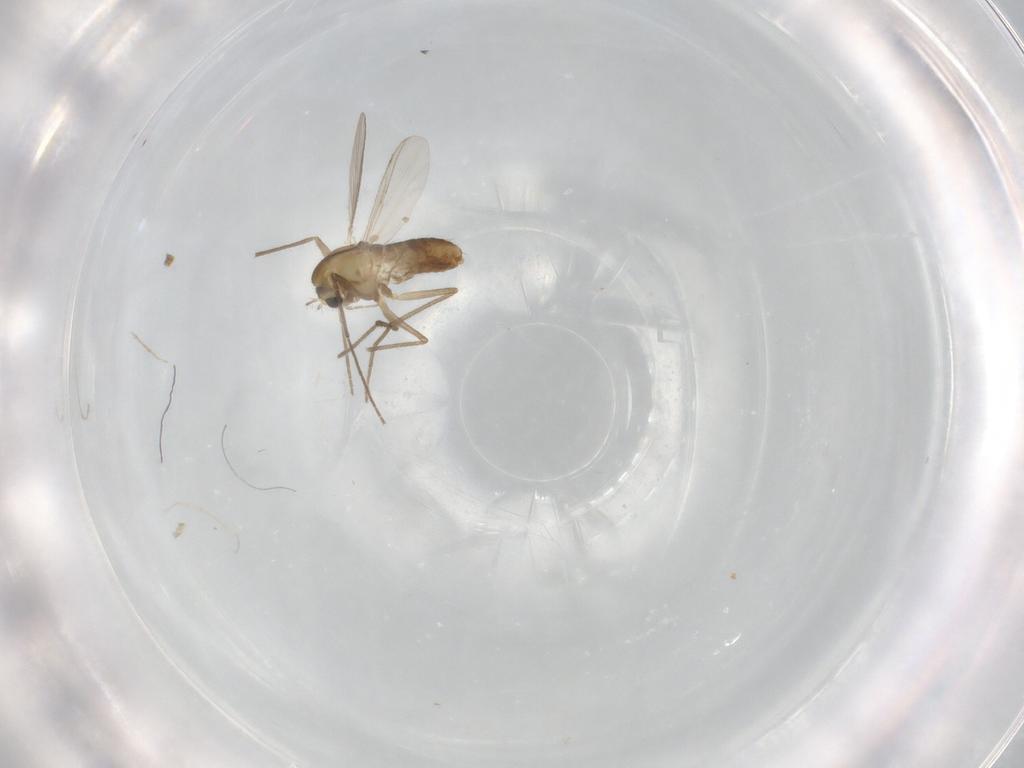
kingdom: Animalia
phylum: Arthropoda
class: Insecta
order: Diptera
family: Chironomidae
